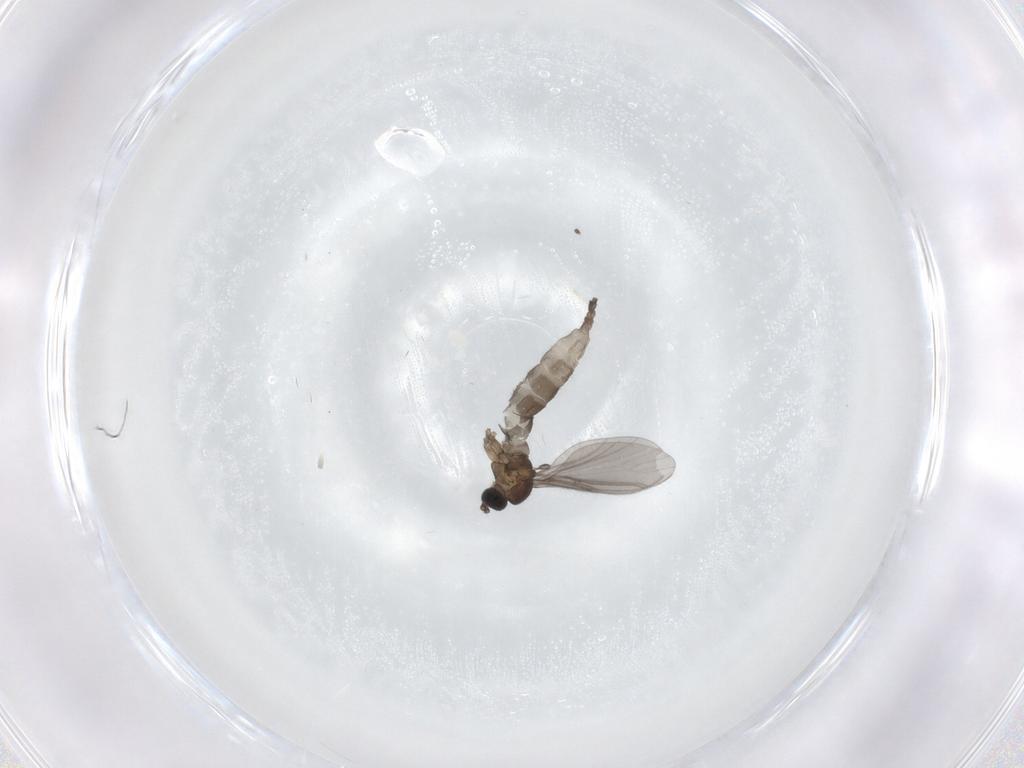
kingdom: Animalia
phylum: Arthropoda
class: Insecta
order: Diptera
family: Sciaridae
